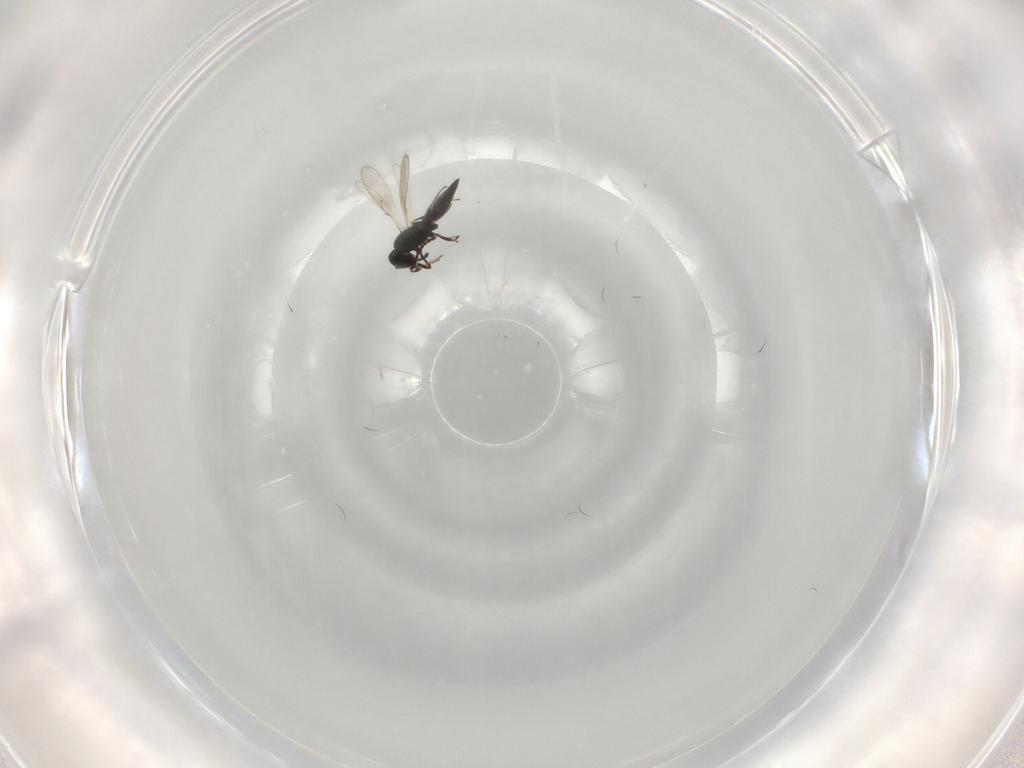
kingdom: Animalia
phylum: Arthropoda
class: Insecta
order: Hymenoptera
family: Scelionidae
